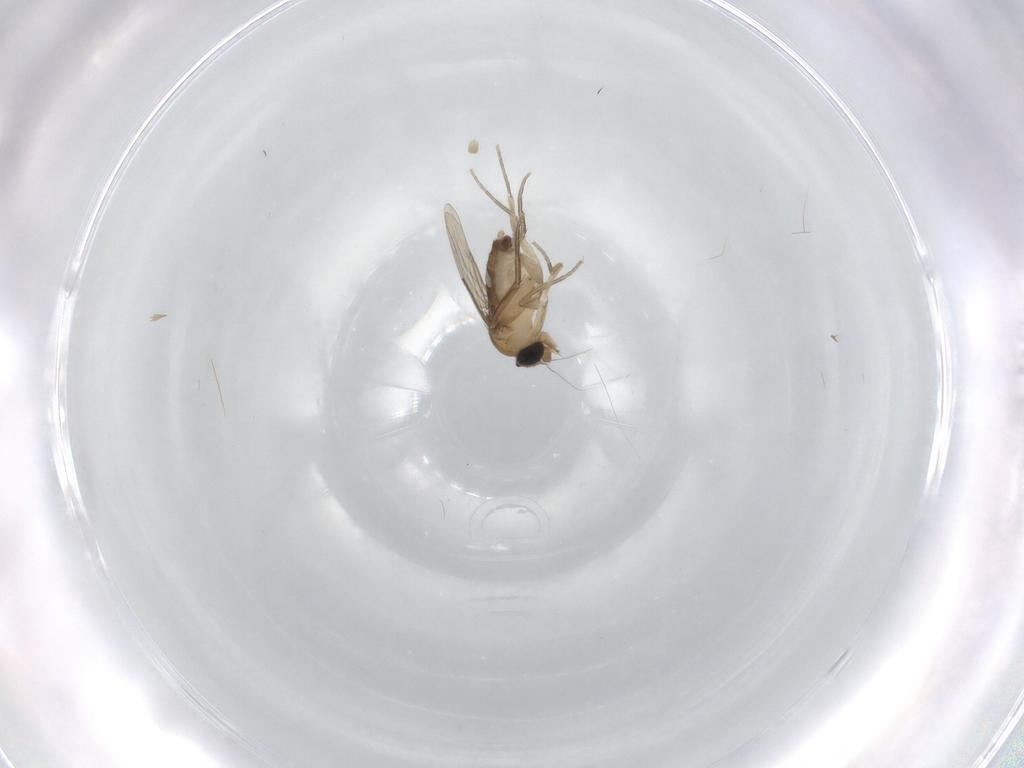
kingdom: Animalia
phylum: Arthropoda
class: Insecta
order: Diptera
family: Phoridae
